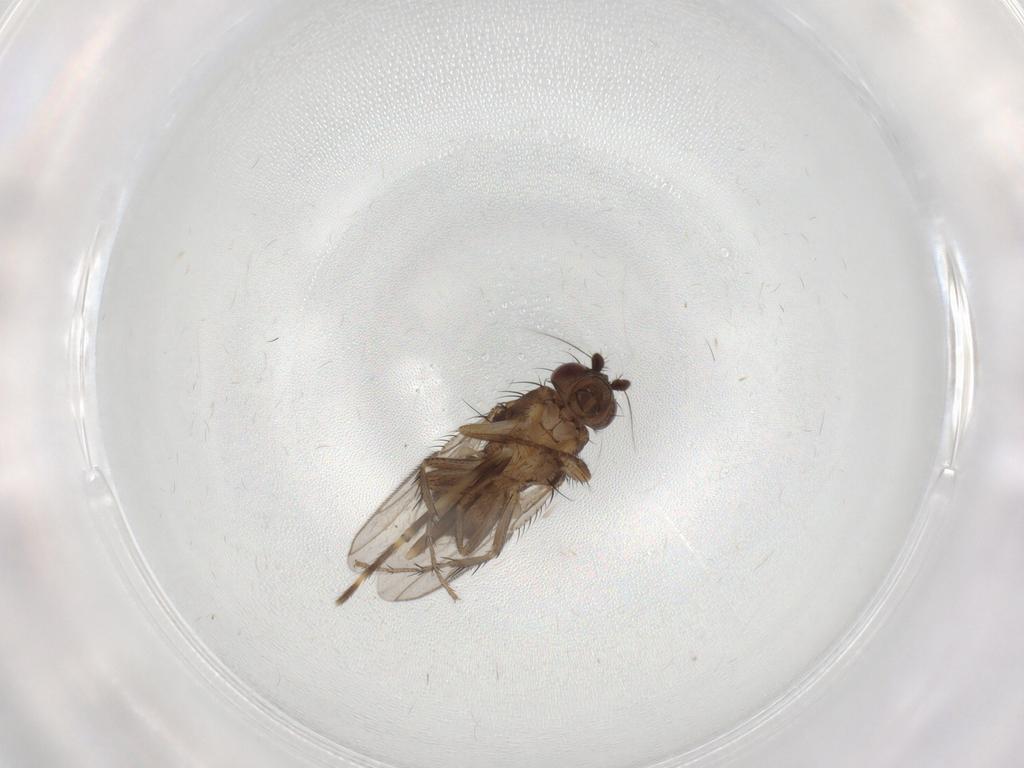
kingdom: Animalia
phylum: Arthropoda
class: Insecta
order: Diptera
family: Sphaeroceridae
